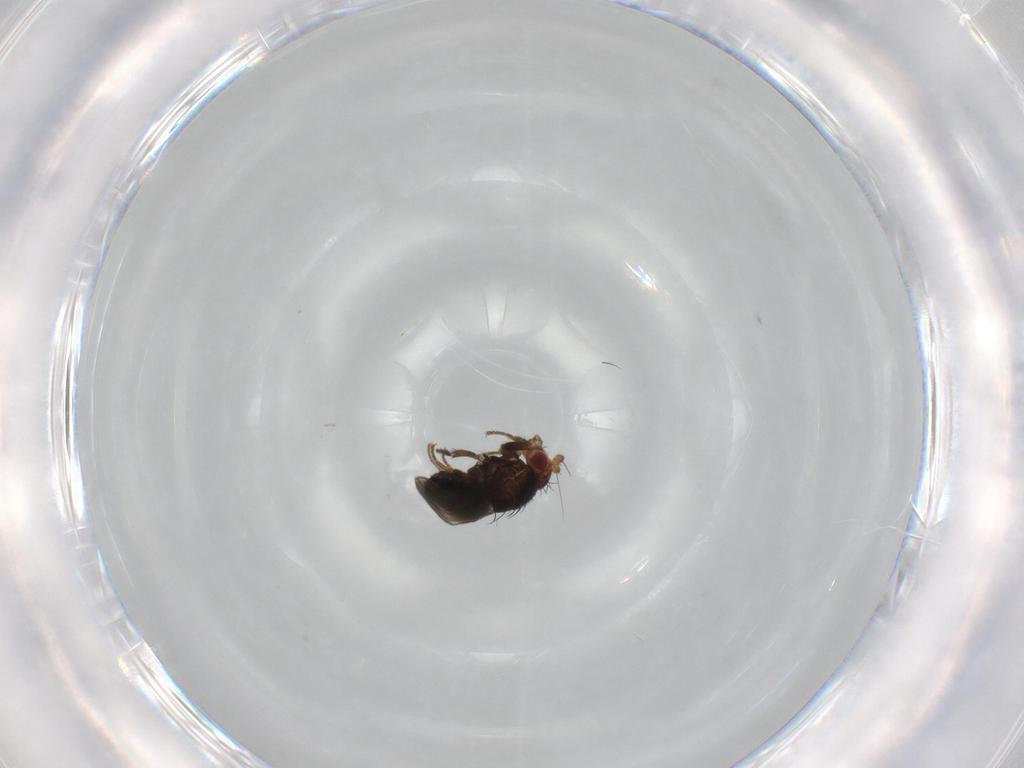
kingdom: Animalia
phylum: Arthropoda
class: Insecta
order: Diptera
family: Sphaeroceridae
